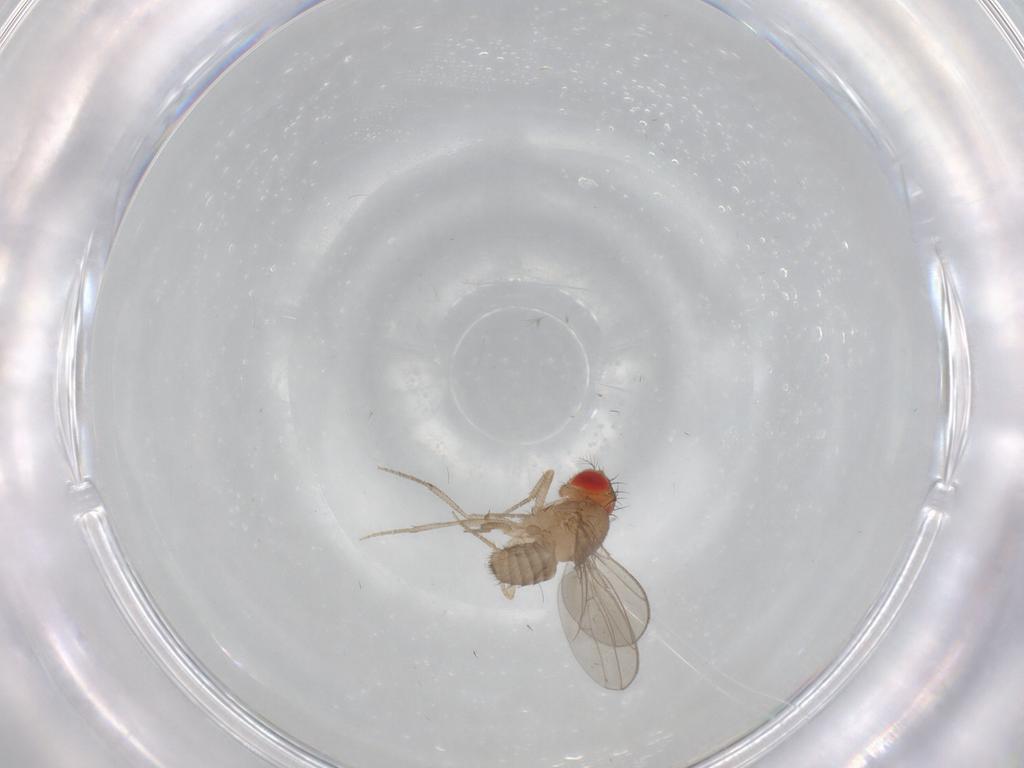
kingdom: Animalia
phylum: Arthropoda
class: Insecta
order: Diptera
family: Drosophilidae
